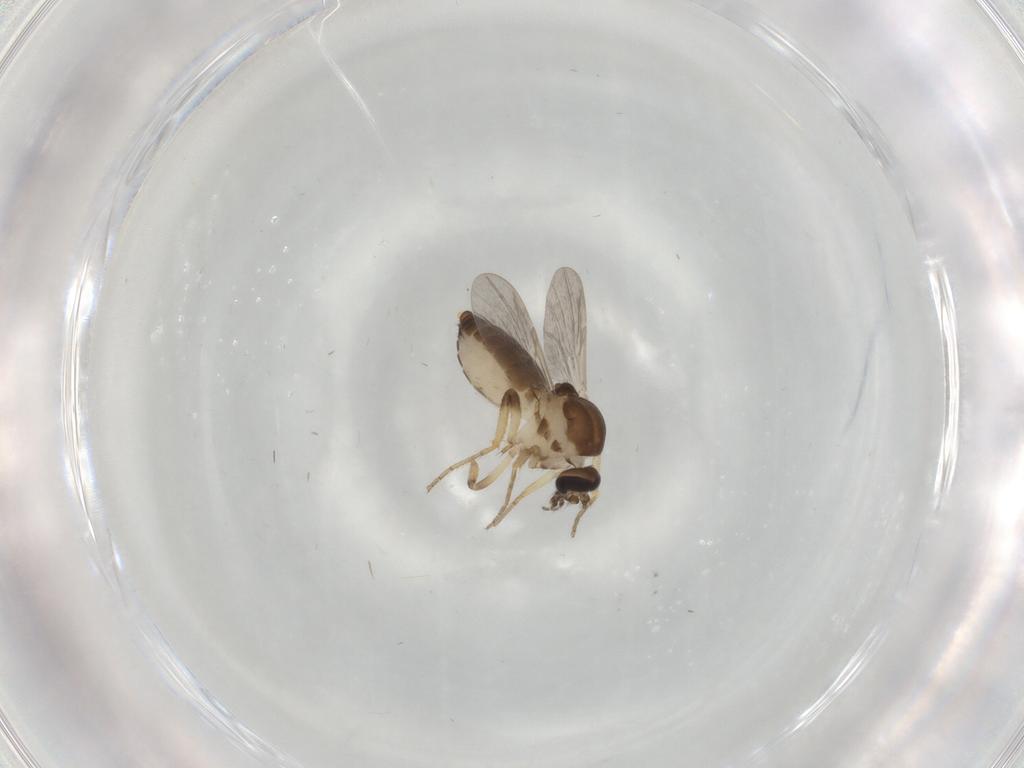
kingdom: Animalia
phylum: Arthropoda
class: Insecta
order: Diptera
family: Ceratopogonidae
